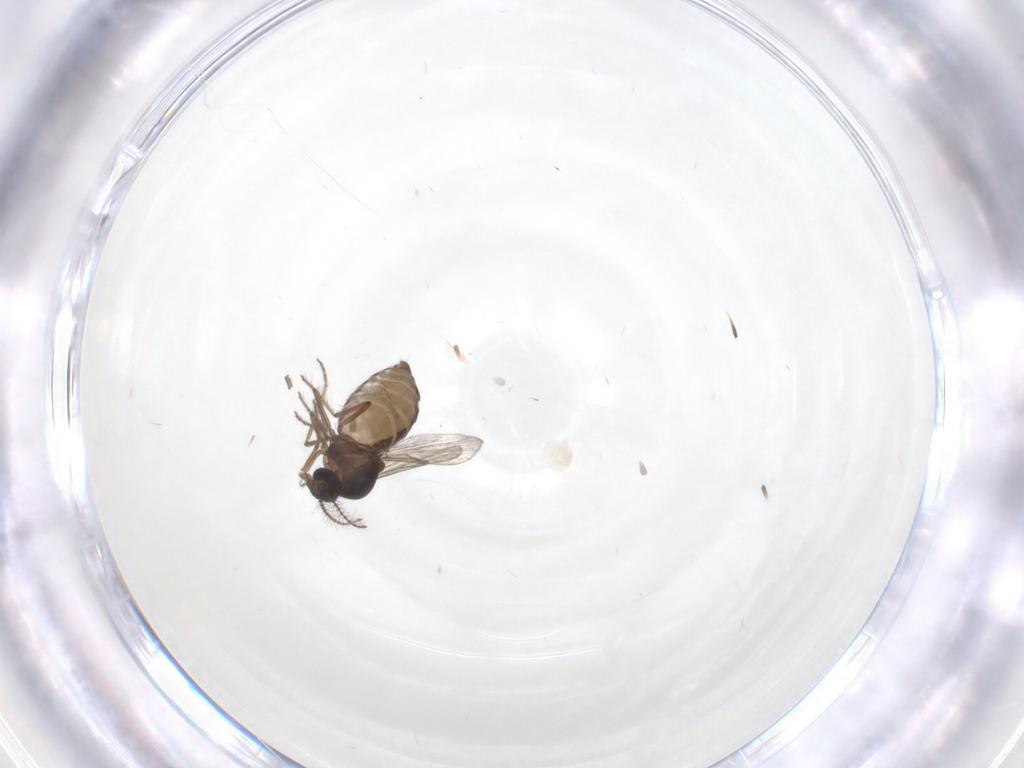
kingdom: Animalia
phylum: Arthropoda
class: Insecta
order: Diptera
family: Ceratopogonidae
